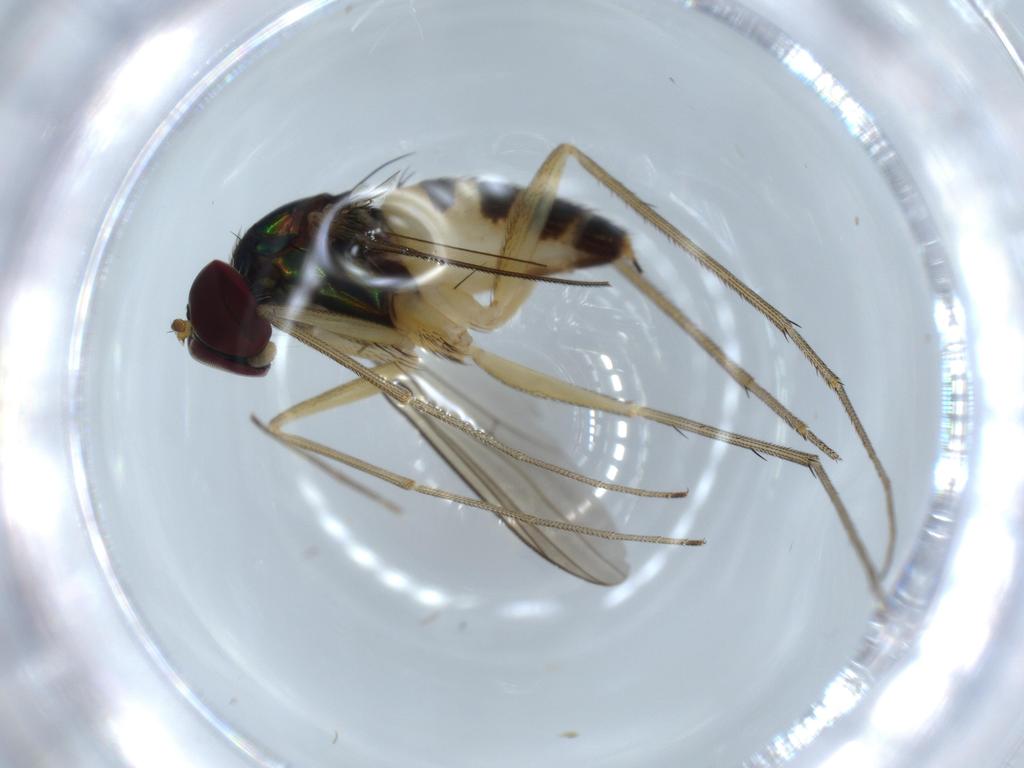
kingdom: Animalia
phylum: Arthropoda
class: Insecta
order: Diptera
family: Dolichopodidae
